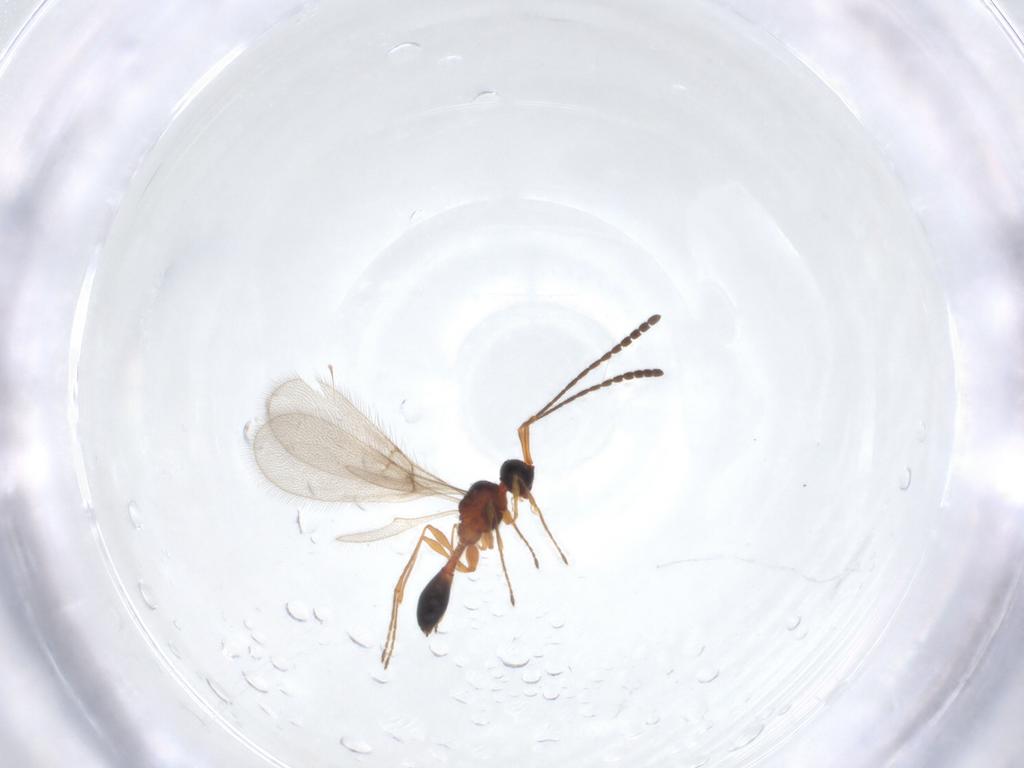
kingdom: Animalia
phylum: Arthropoda
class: Insecta
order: Hymenoptera
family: Diapriidae
